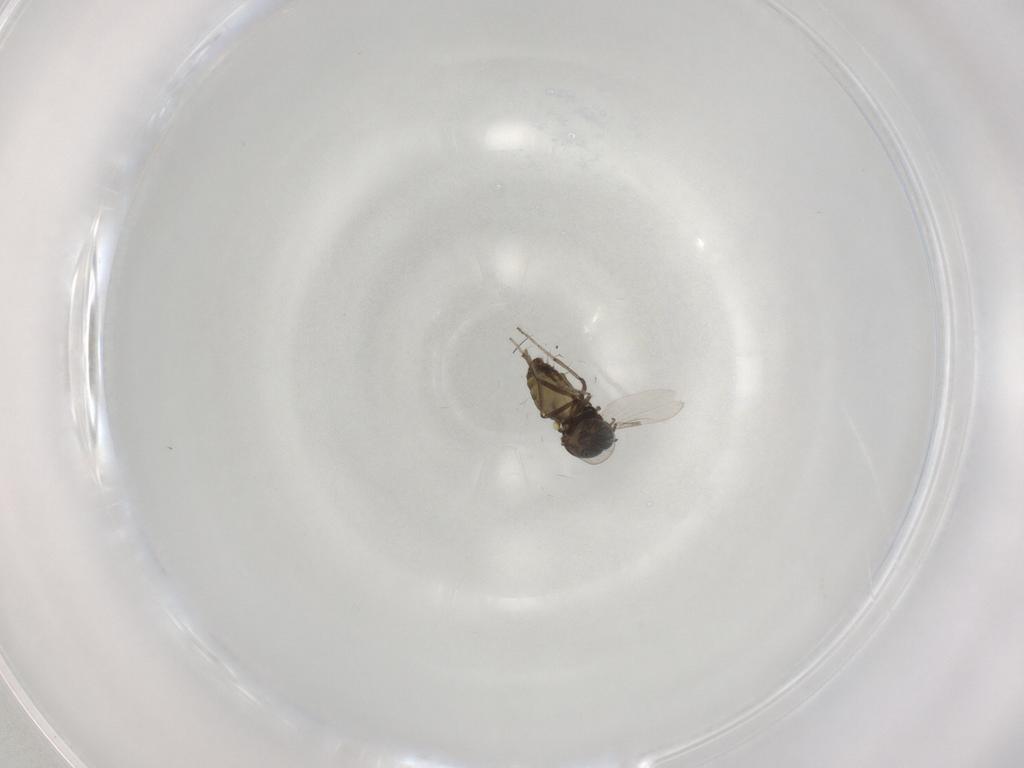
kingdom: Animalia
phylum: Arthropoda
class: Insecta
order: Diptera
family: Ceratopogonidae
